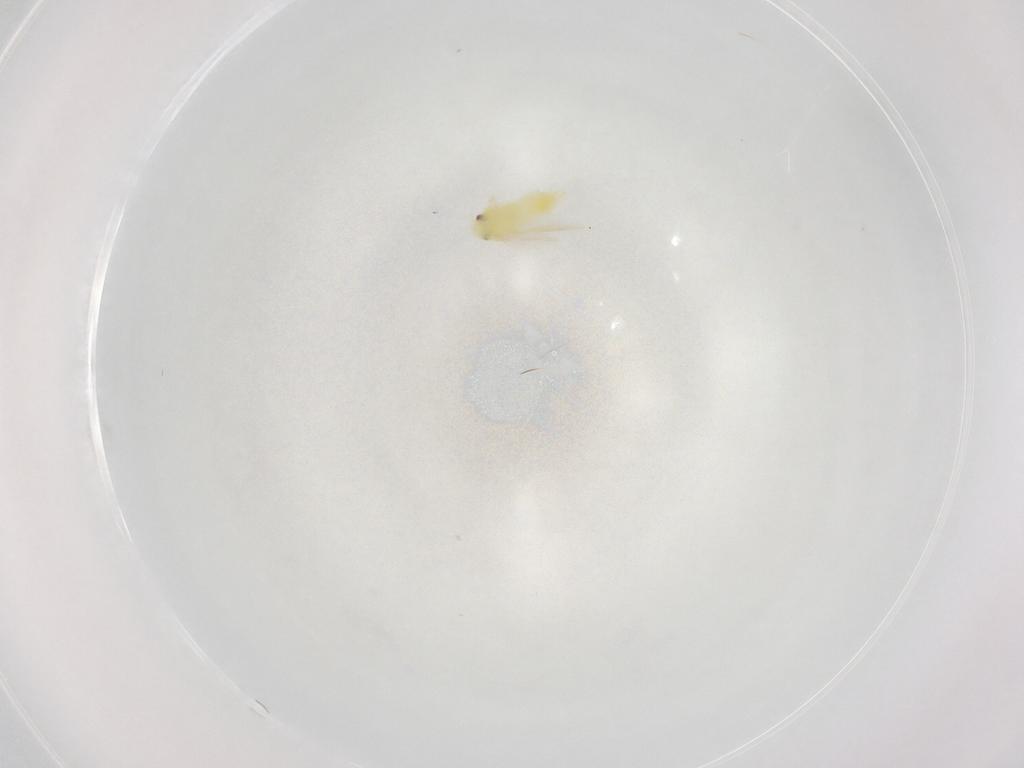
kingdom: Animalia
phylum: Arthropoda
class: Insecta
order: Hemiptera
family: Aleyrodidae
